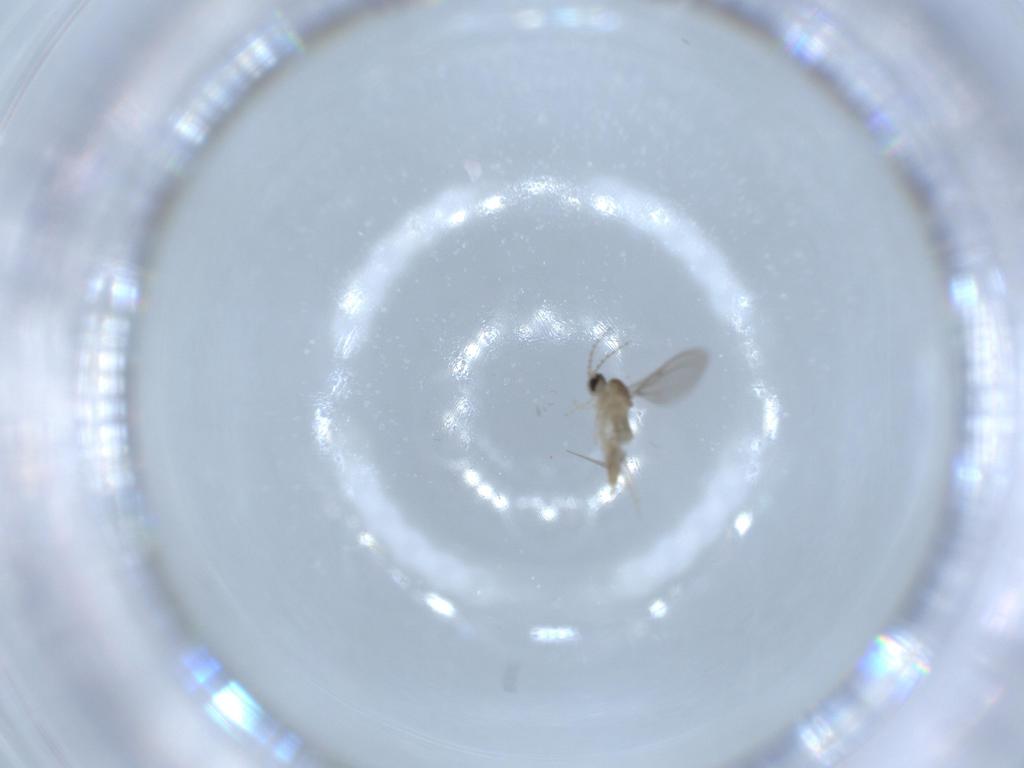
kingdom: Animalia
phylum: Arthropoda
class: Insecta
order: Diptera
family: Cecidomyiidae
